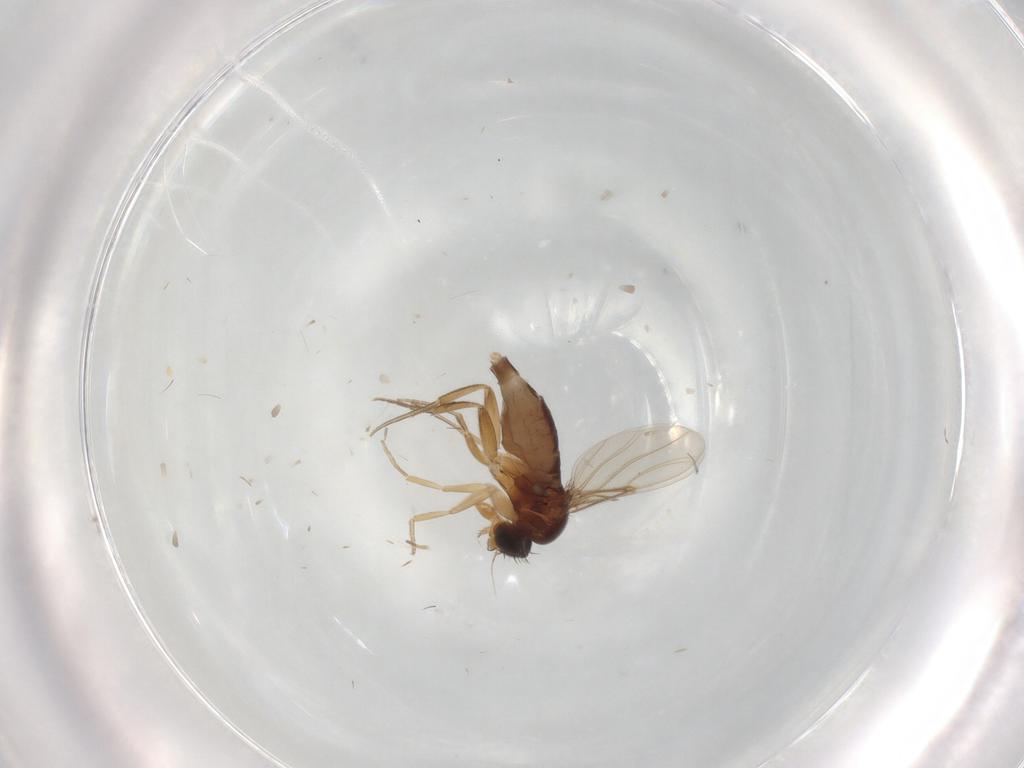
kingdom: Animalia
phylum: Arthropoda
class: Insecta
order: Diptera
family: Phoridae
